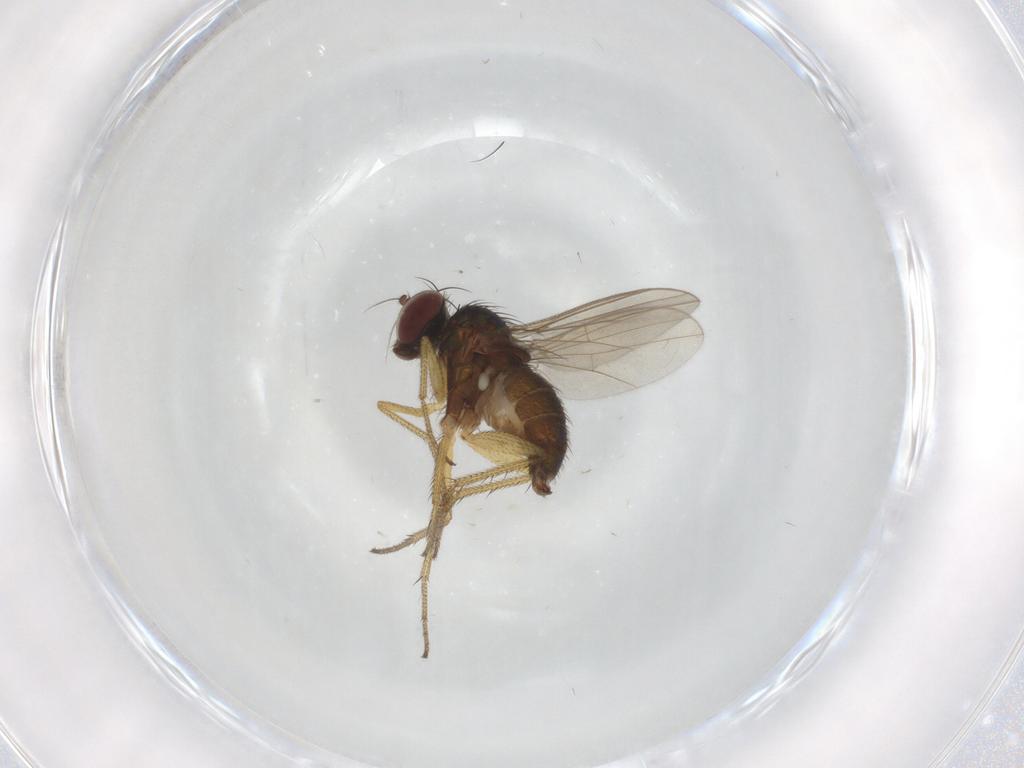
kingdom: Animalia
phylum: Arthropoda
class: Insecta
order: Diptera
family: Dolichopodidae
